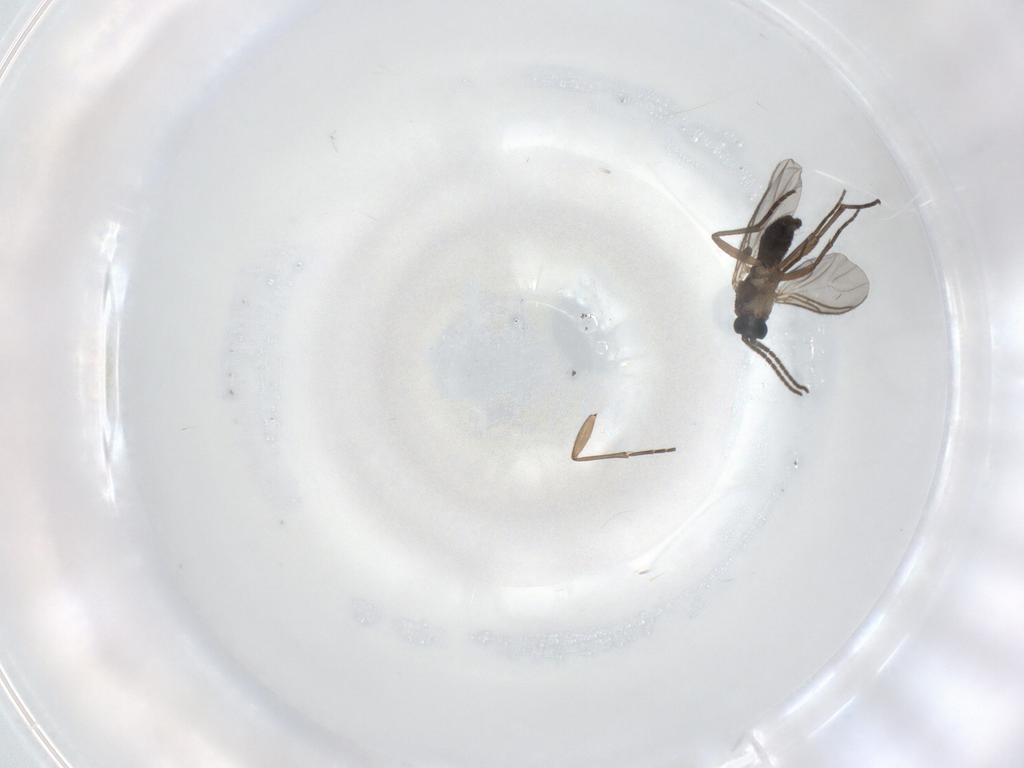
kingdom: Animalia
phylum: Arthropoda
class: Insecta
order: Diptera
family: Sciaridae
